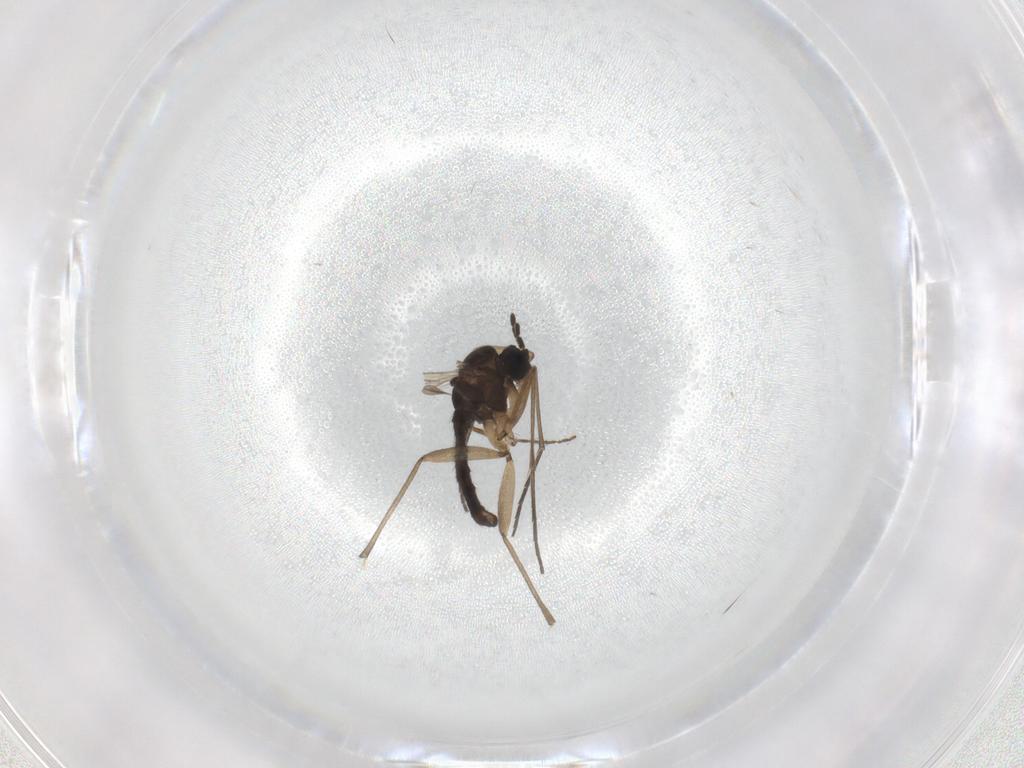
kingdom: Animalia
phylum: Arthropoda
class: Insecta
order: Diptera
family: Sciaridae
